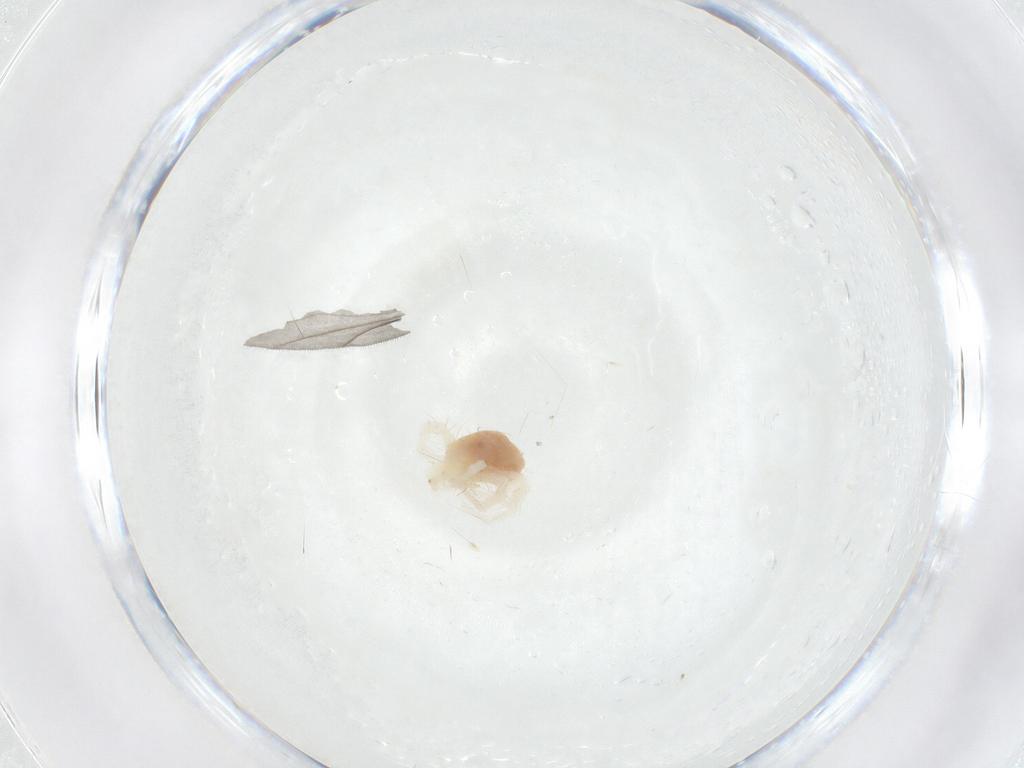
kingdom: Animalia
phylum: Arthropoda
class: Arachnida
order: Trombidiformes
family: Anystidae
